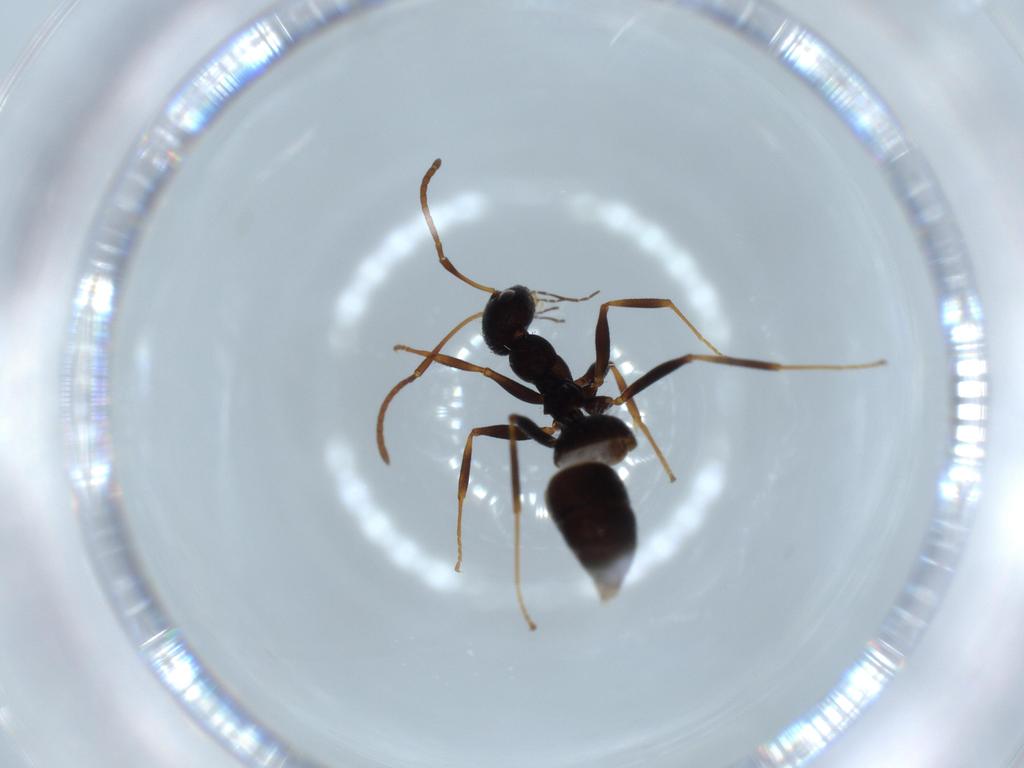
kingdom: Animalia
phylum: Arthropoda
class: Insecta
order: Hymenoptera
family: Formicidae
